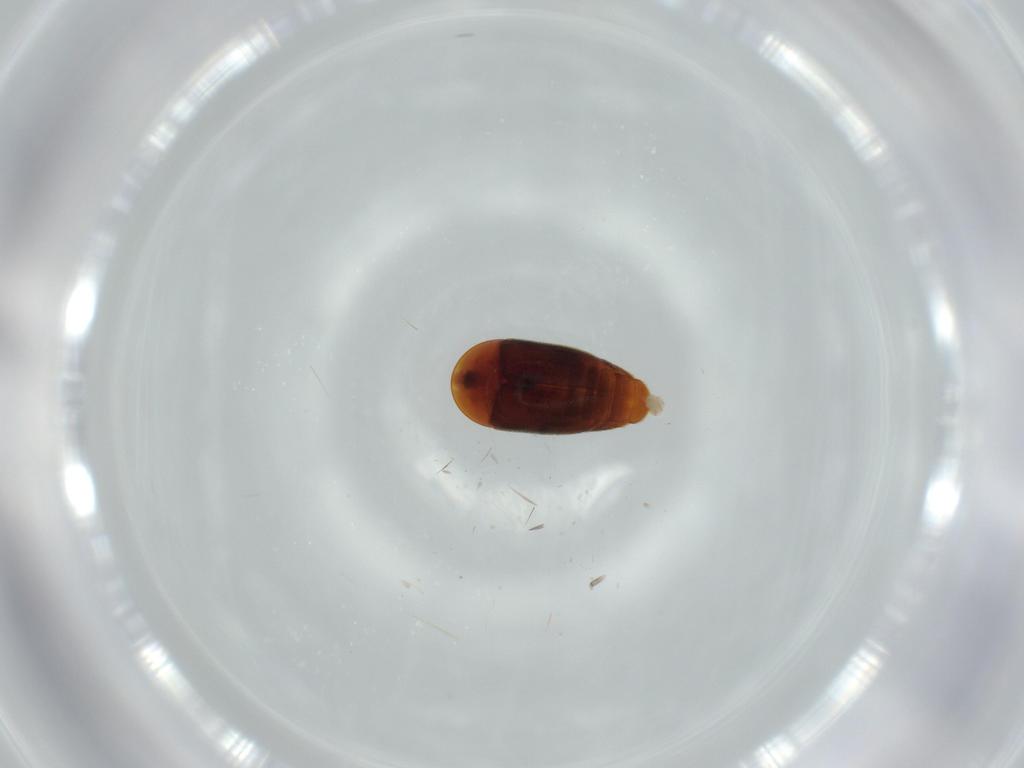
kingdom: Animalia
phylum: Arthropoda
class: Insecta
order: Coleoptera
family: Corylophidae
